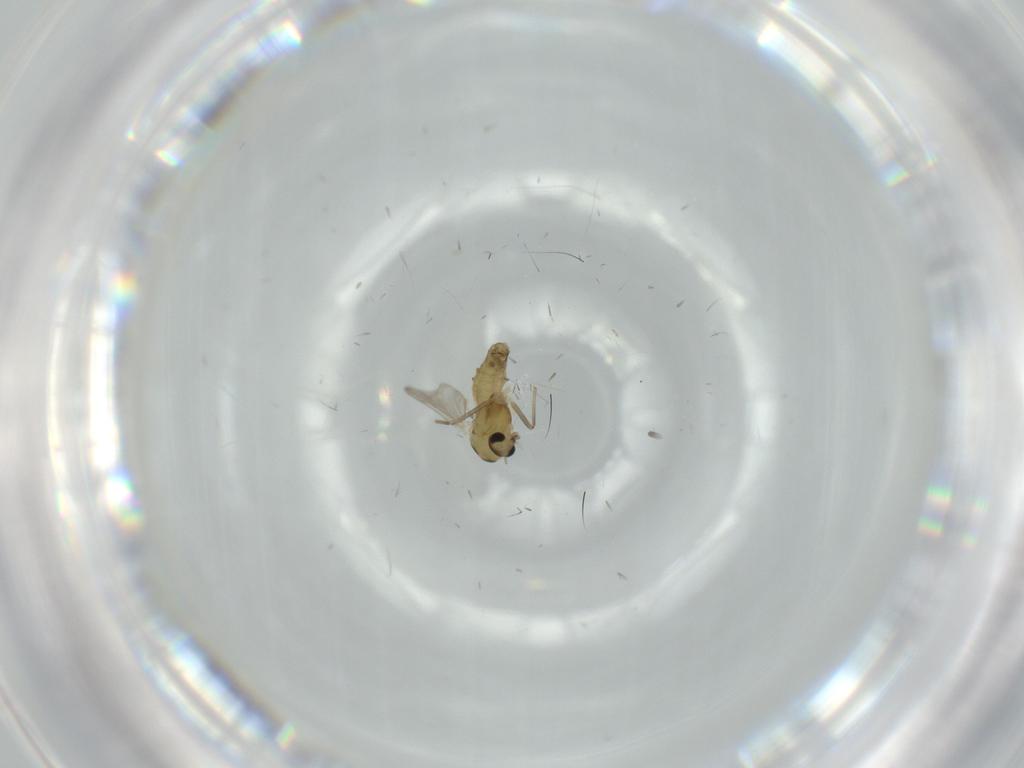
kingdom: Animalia
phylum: Arthropoda
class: Insecta
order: Diptera
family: Chironomidae
